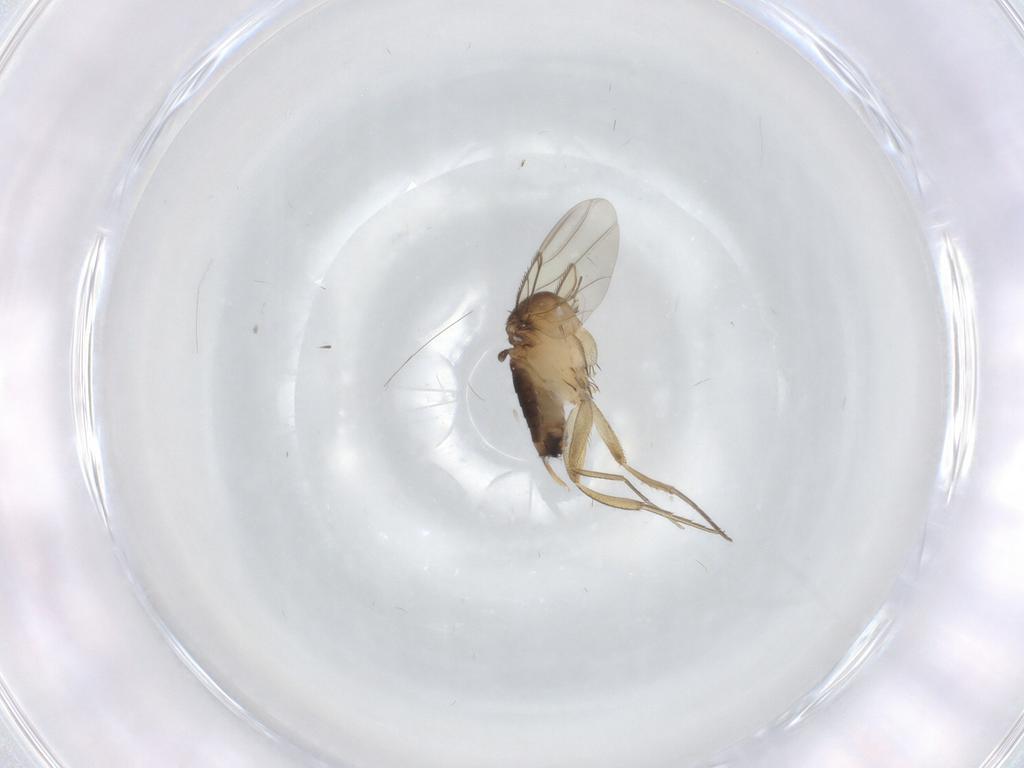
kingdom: Animalia
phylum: Arthropoda
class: Insecta
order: Diptera
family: Phoridae
